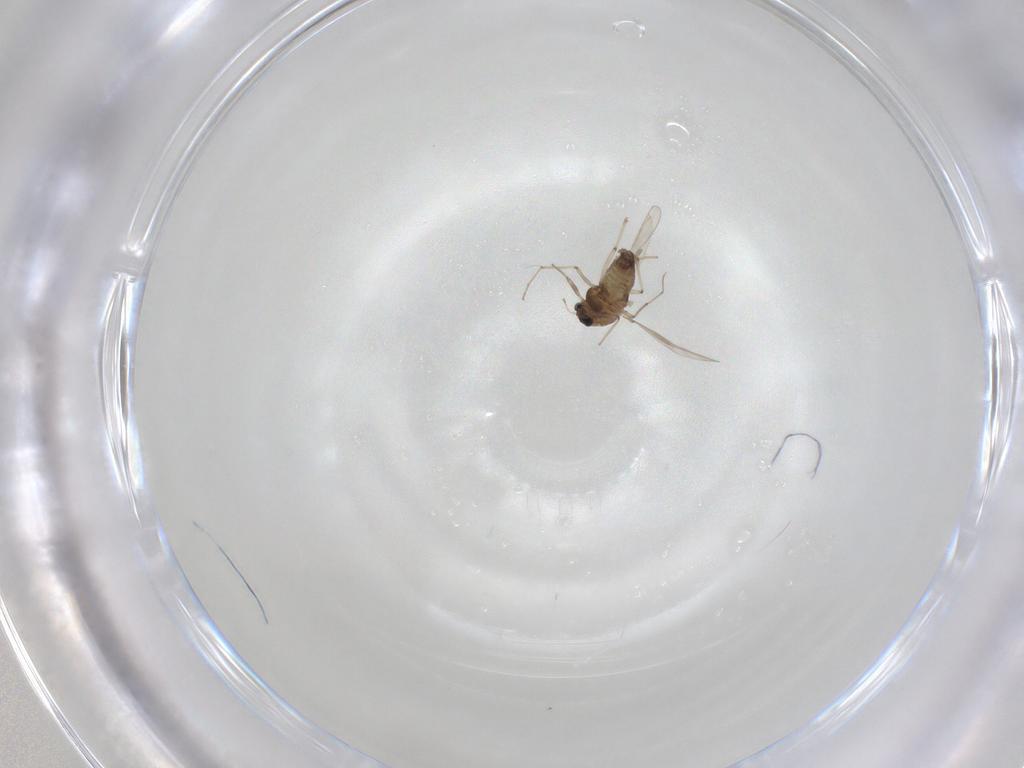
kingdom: Animalia
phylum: Arthropoda
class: Insecta
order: Diptera
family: Chironomidae
